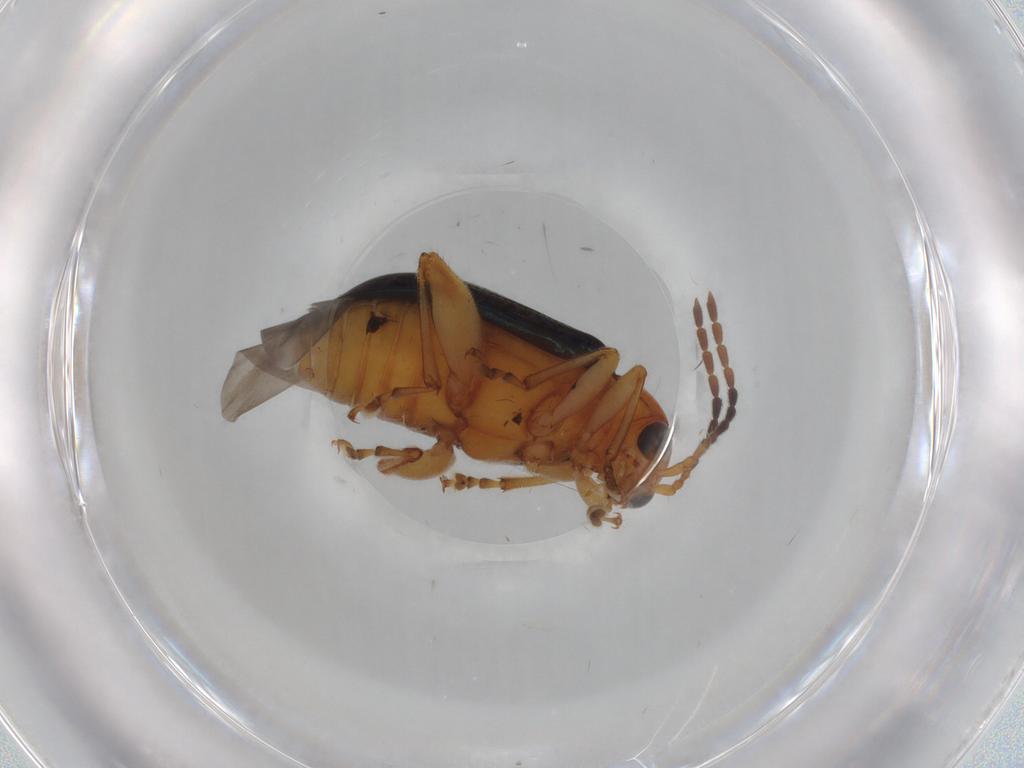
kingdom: Animalia
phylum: Arthropoda
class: Insecta
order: Coleoptera
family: Chrysomelidae
